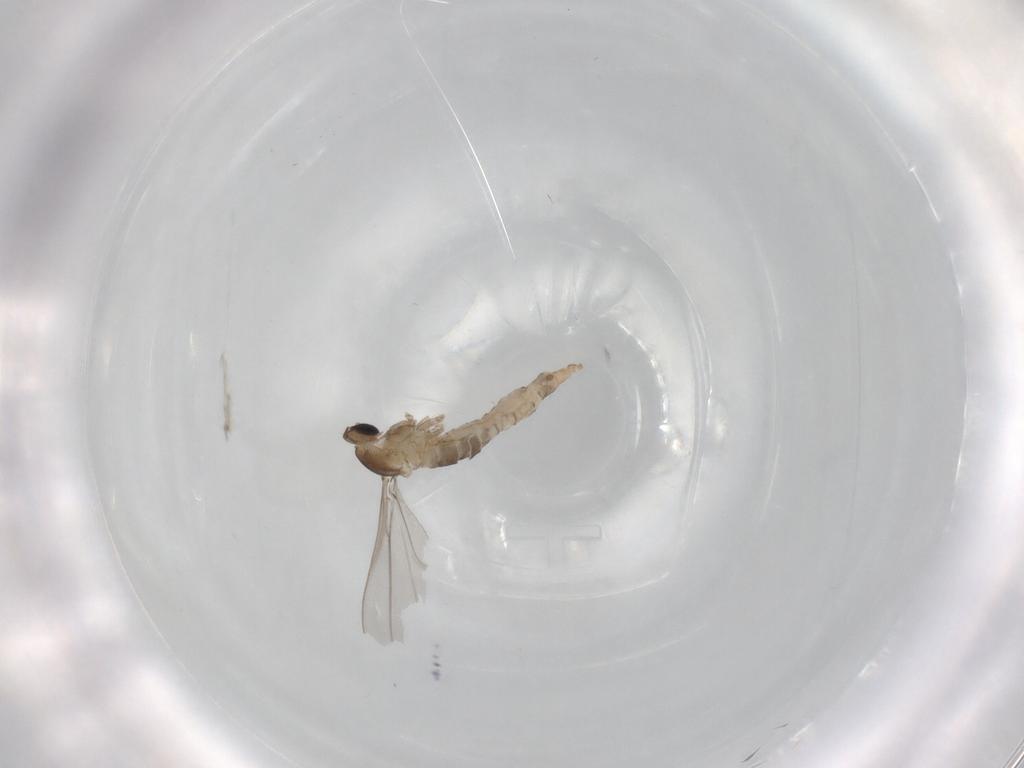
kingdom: Animalia
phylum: Arthropoda
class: Insecta
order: Diptera
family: Cecidomyiidae
